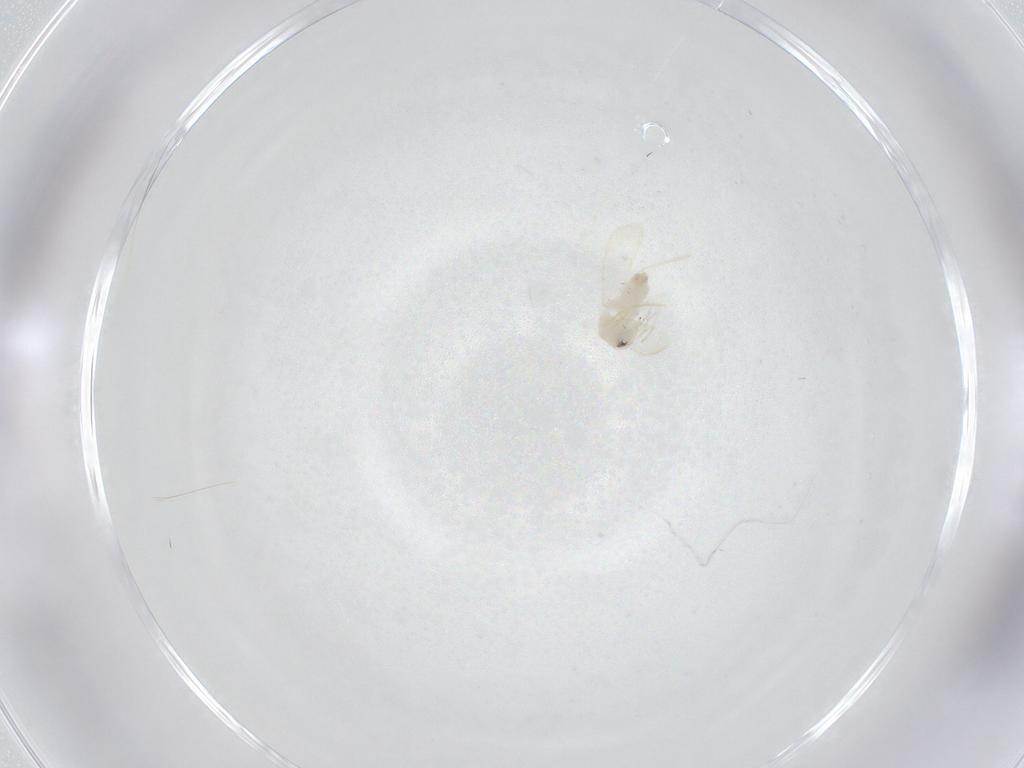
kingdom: Animalia
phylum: Arthropoda
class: Insecta
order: Hemiptera
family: Aleyrodidae
